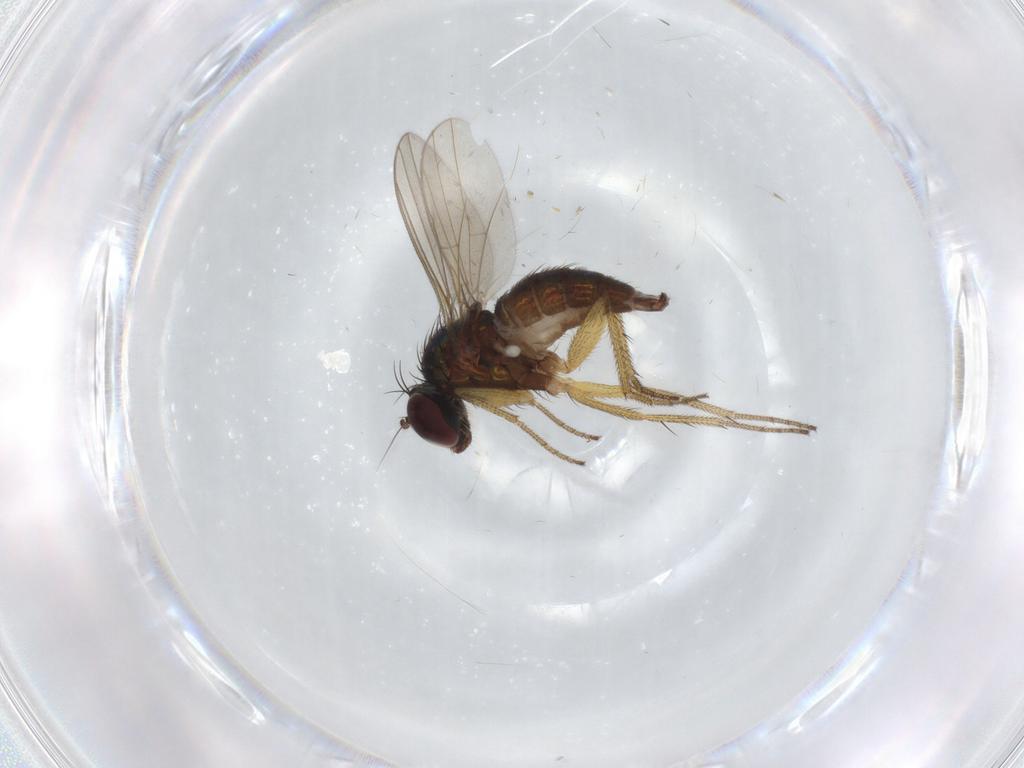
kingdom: Animalia
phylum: Arthropoda
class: Insecta
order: Diptera
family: Dolichopodidae
